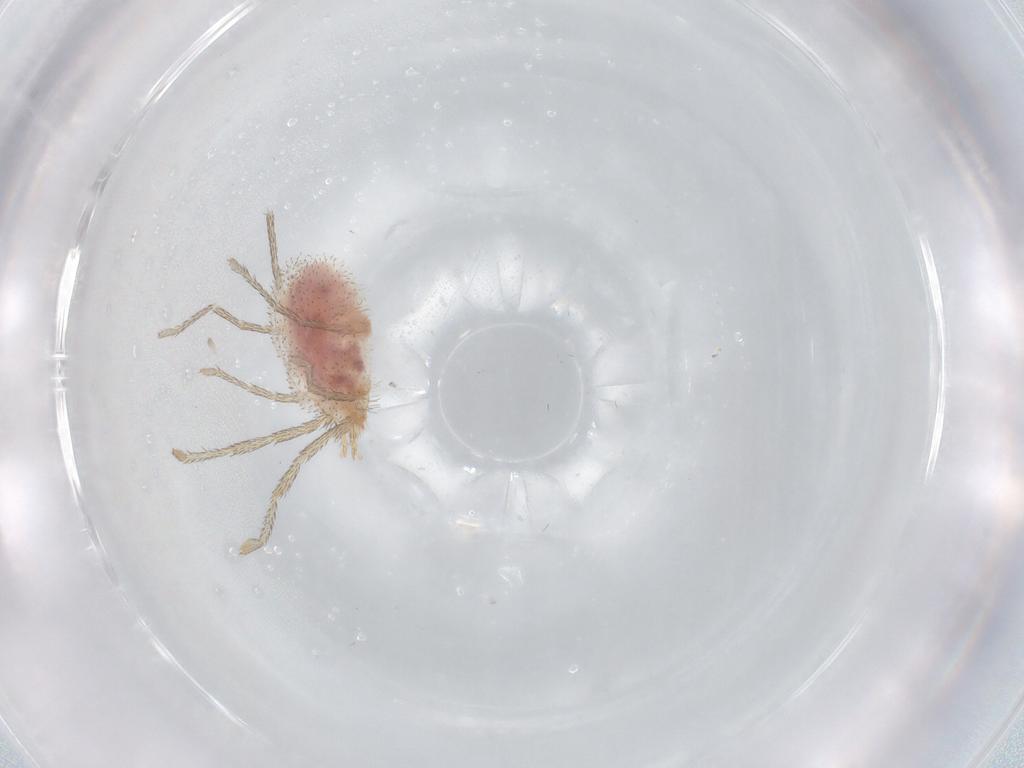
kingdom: Animalia
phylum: Arthropoda
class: Arachnida
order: Trombidiformes
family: Erythraeidae
